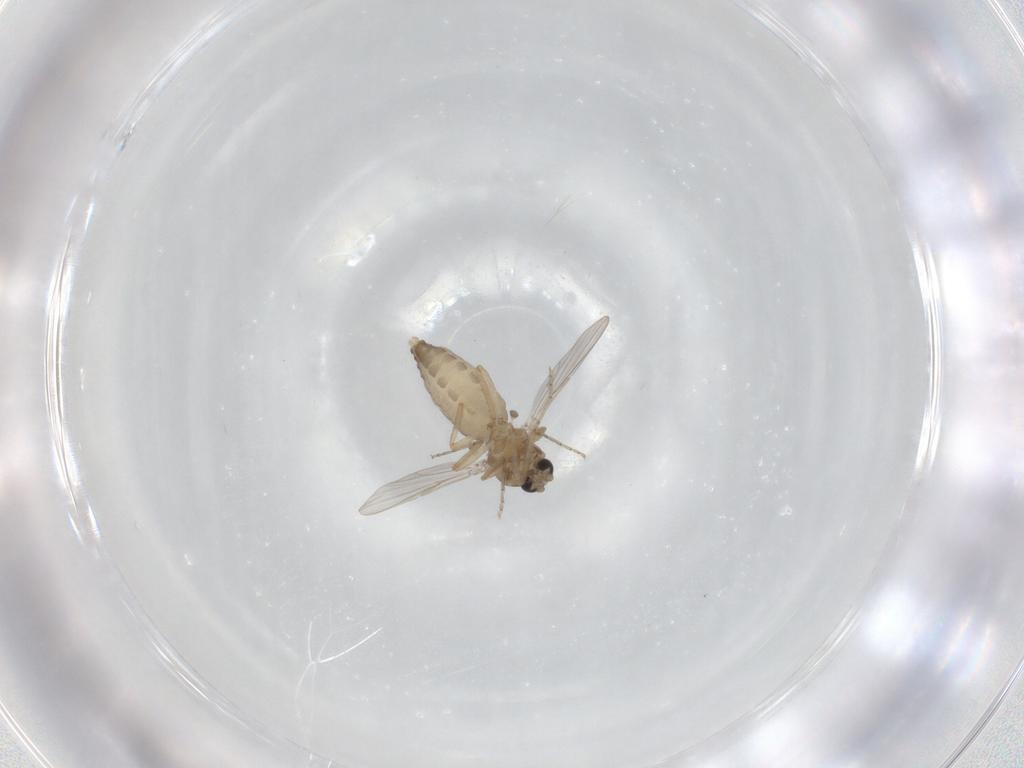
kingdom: Animalia
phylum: Arthropoda
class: Insecta
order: Diptera
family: Ceratopogonidae
